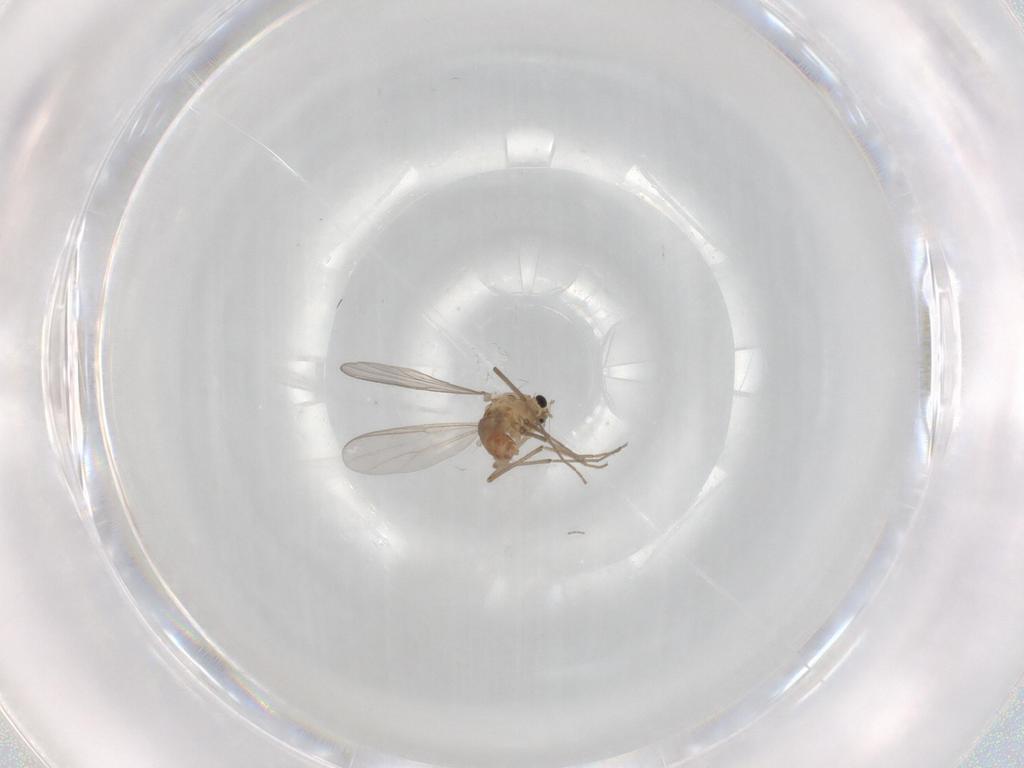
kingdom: Animalia
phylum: Arthropoda
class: Insecta
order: Diptera
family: Chironomidae
